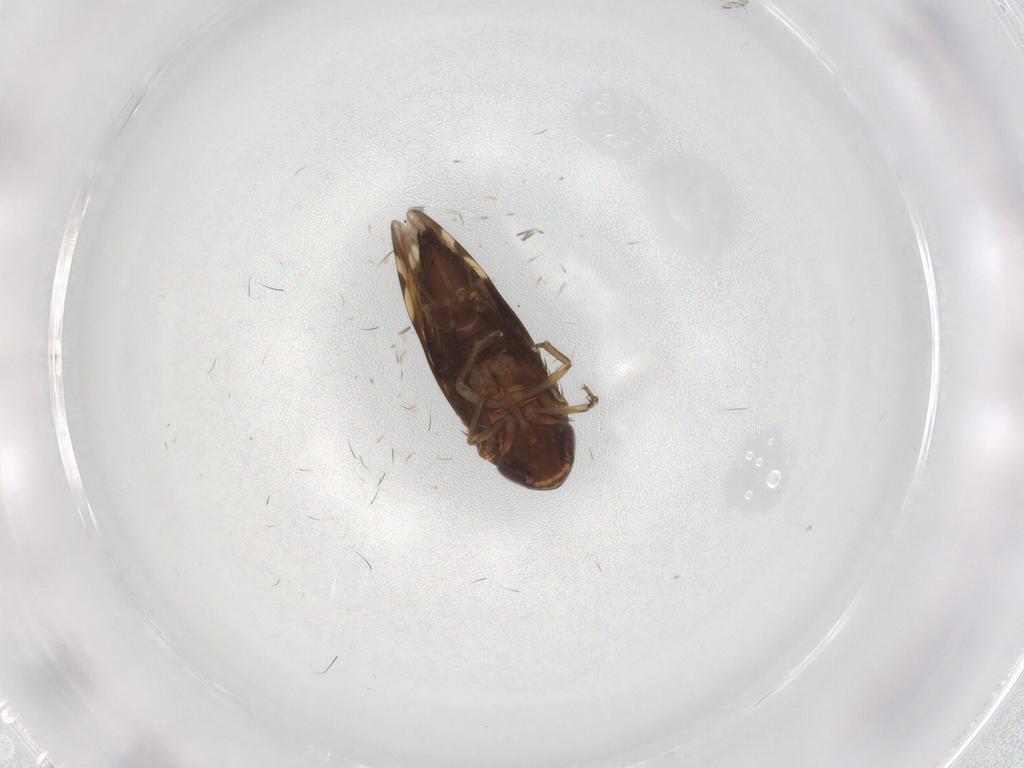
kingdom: Animalia
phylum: Arthropoda
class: Insecta
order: Hemiptera
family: Cicadellidae
